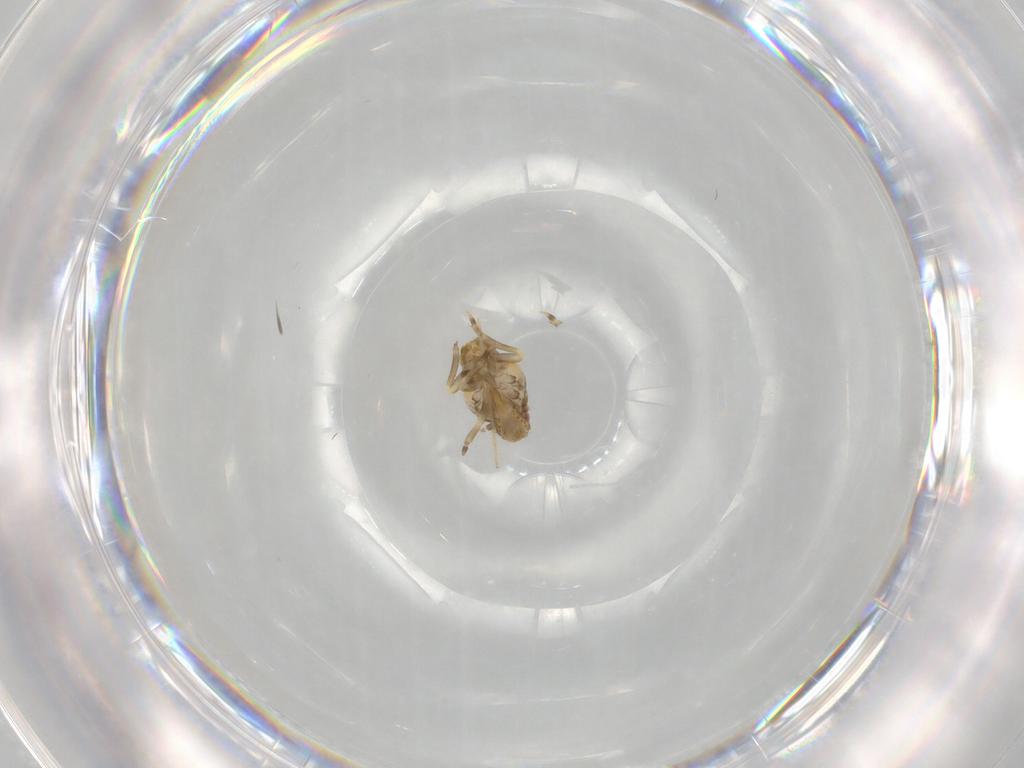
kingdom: Animalia
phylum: Arthropoda
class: Insecta
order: Hemiptera
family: Flatidae
